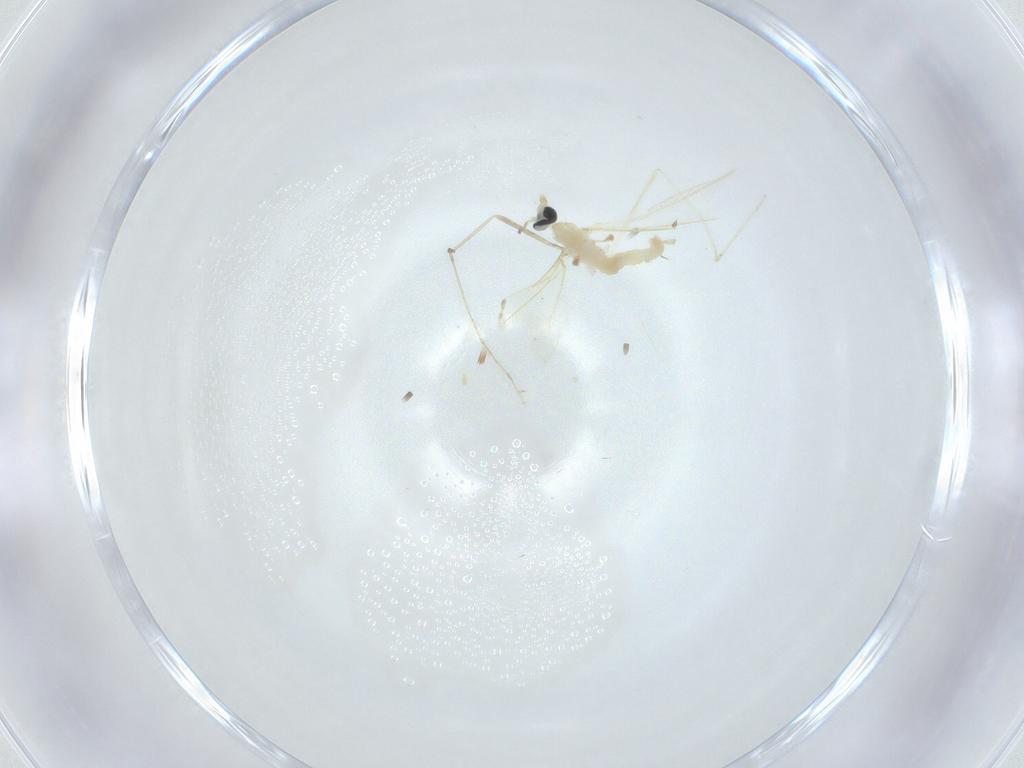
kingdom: Animalia
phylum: Arthropoda
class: Insecta
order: Diptera
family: Cecidomyiidae
